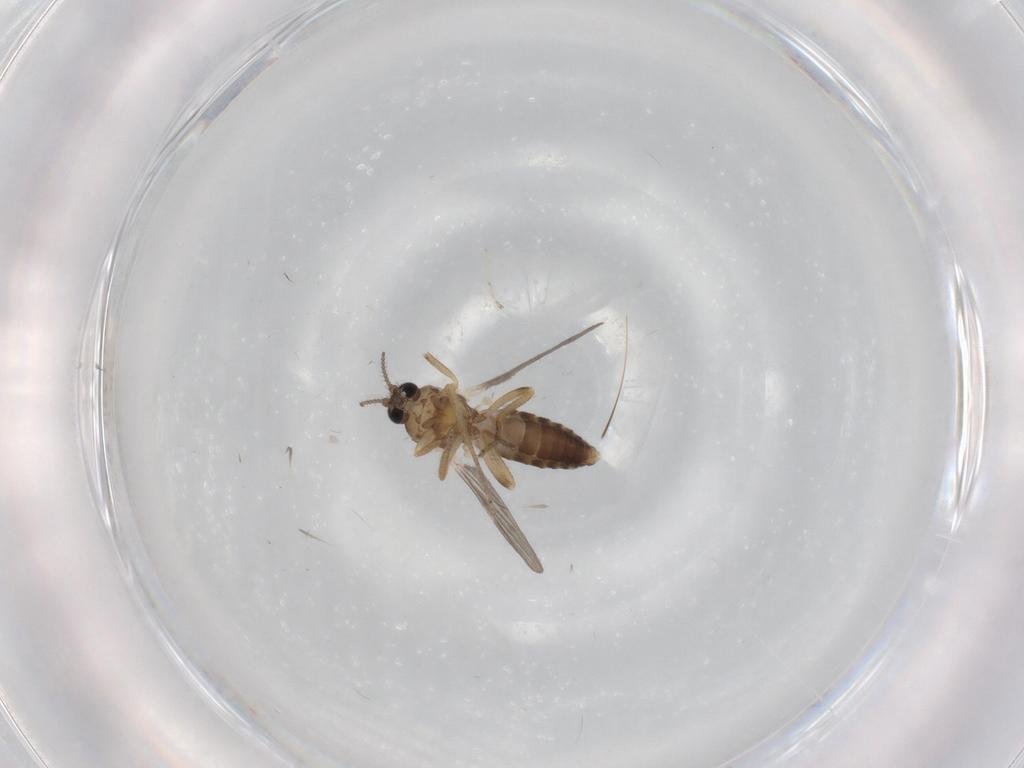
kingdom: Animalia
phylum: Arthropoda
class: Insecta
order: Diptera
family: Ceratopogonidae
